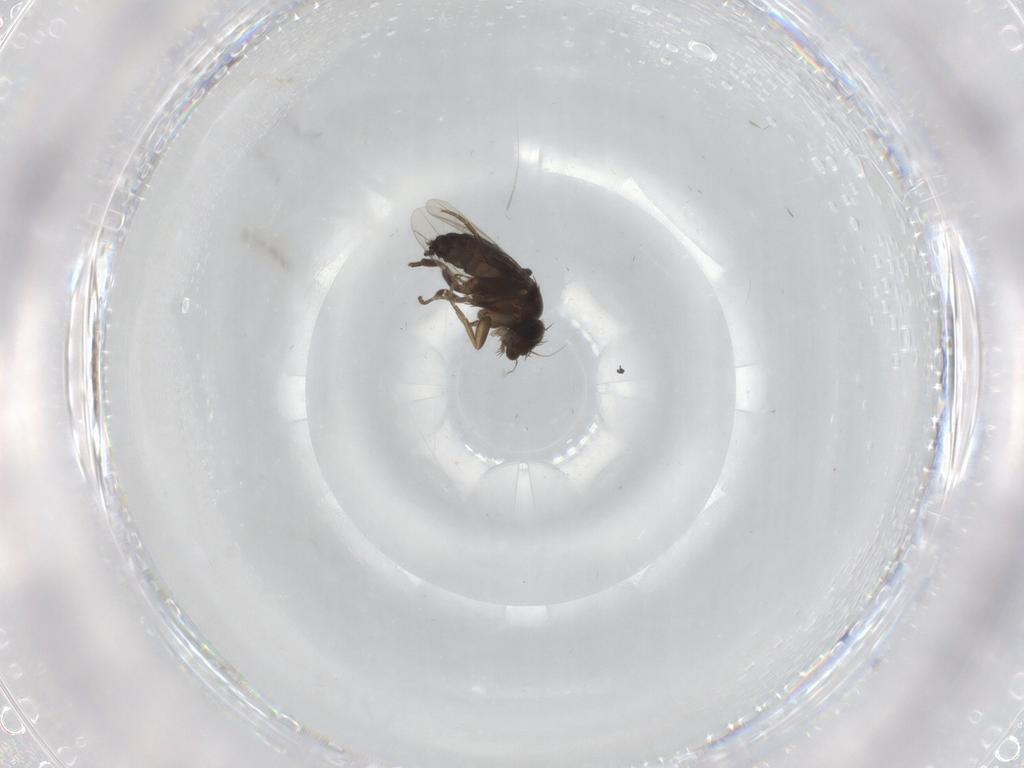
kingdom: Animalia
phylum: Arthropoda
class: Insecta
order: Diptera
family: Phoridae
